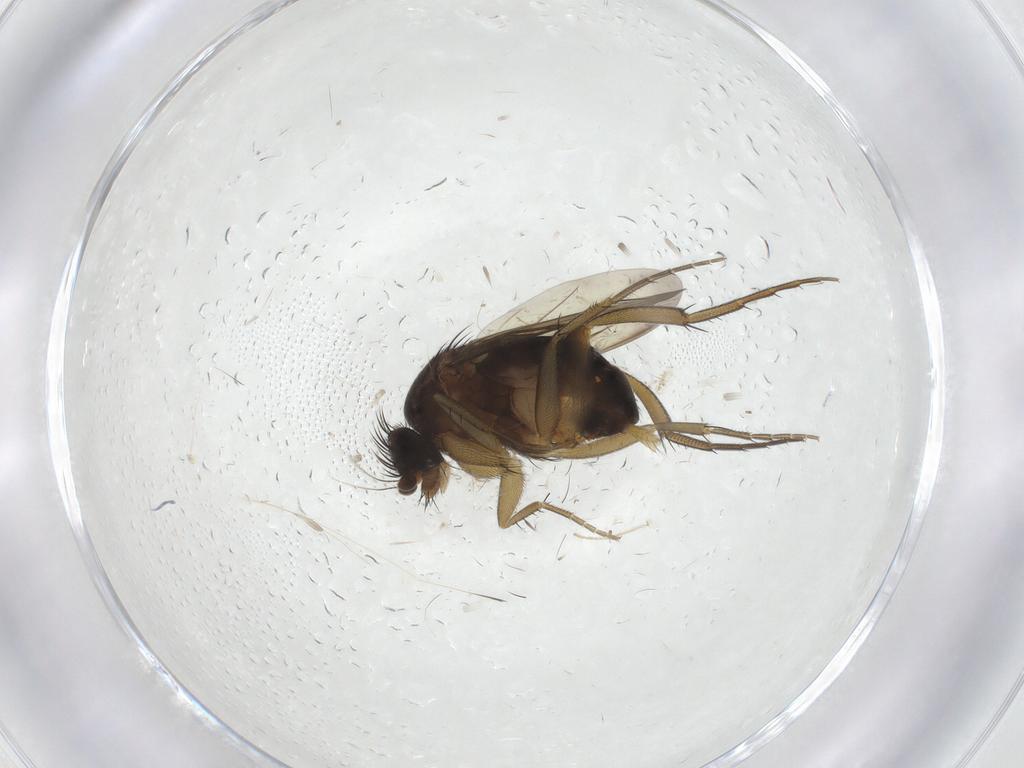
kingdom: Animalia
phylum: Arthropoda
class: Insecta
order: Diptera
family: Phoridae
